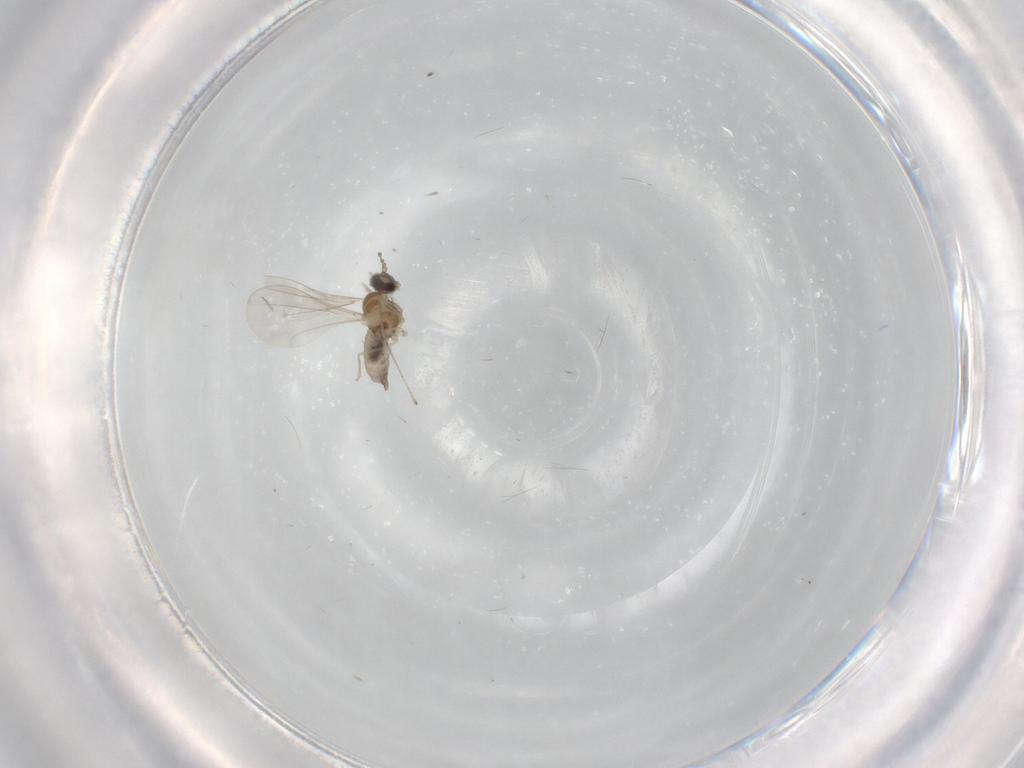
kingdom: Animalia
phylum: Arthropoda
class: Insecta
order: Diptera
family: Cecidomyiidae
